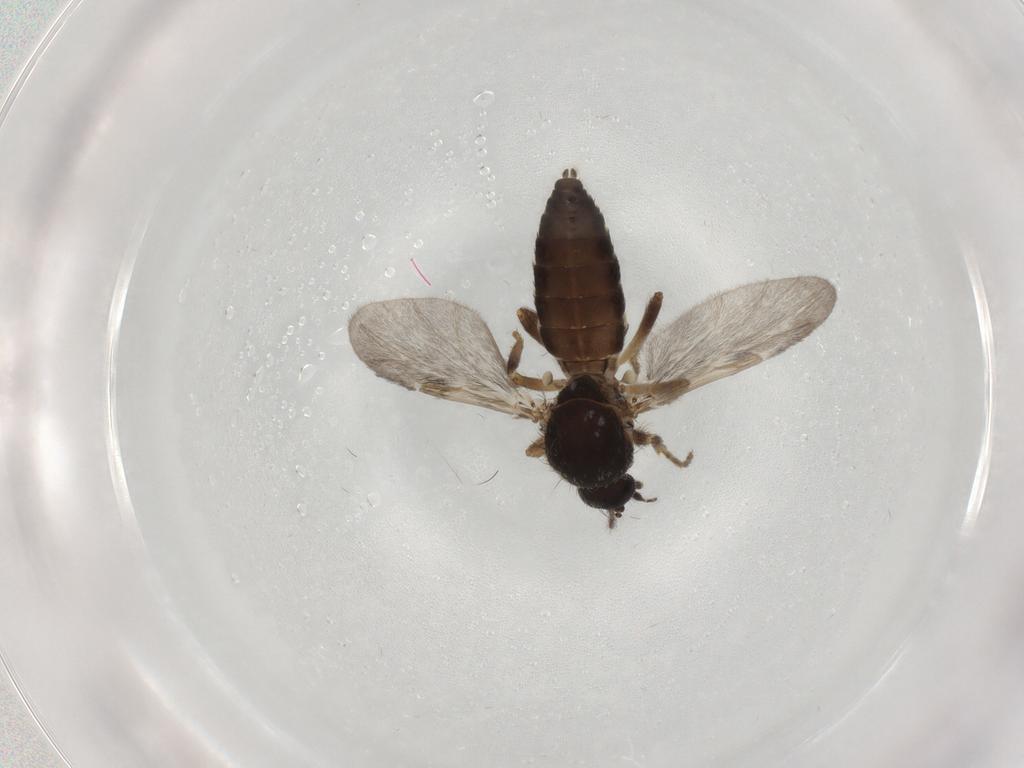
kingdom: Animalia
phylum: Arthropoda
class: Insecta
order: Diptera
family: Ceratopogonidae
